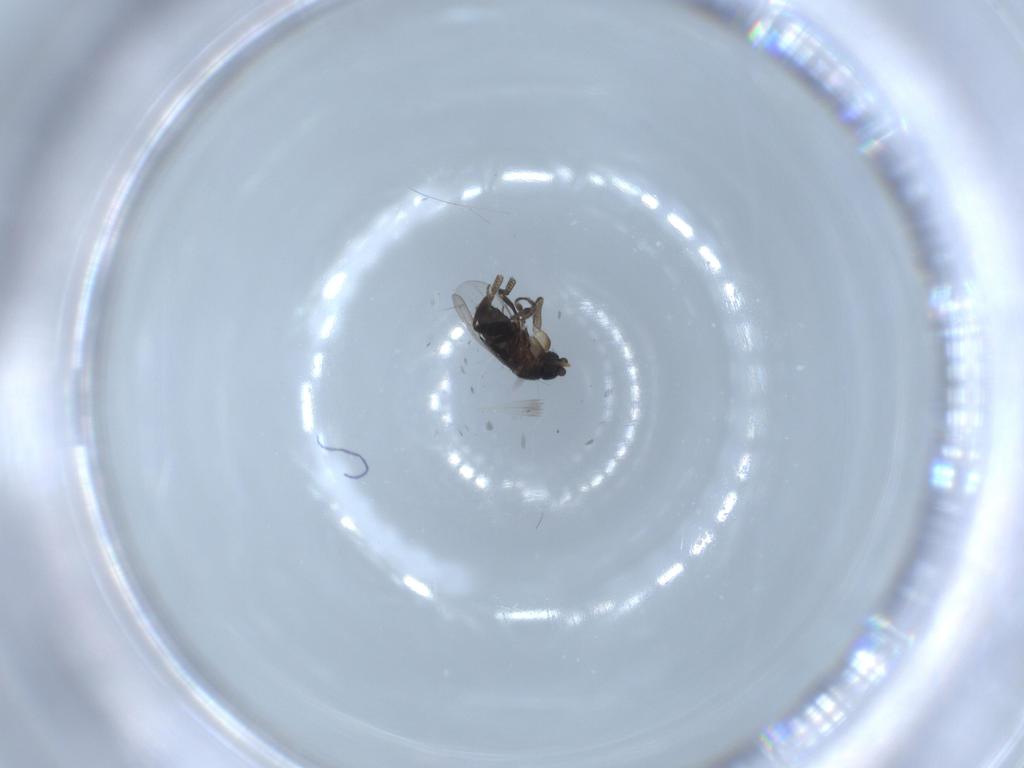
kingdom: Animalia
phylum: Arthropoda
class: Insecta
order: Diptera
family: Phoridae
